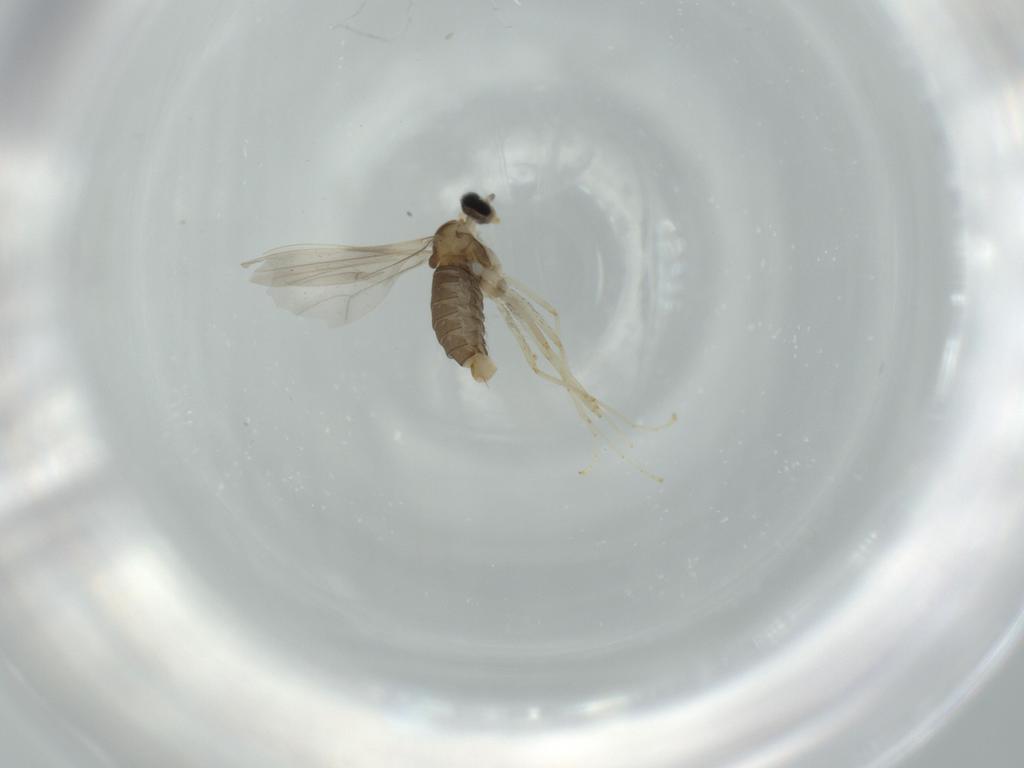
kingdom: Animalia
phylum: Arthropoda
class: Insecta
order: Diptera
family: Cecidomyiidae
